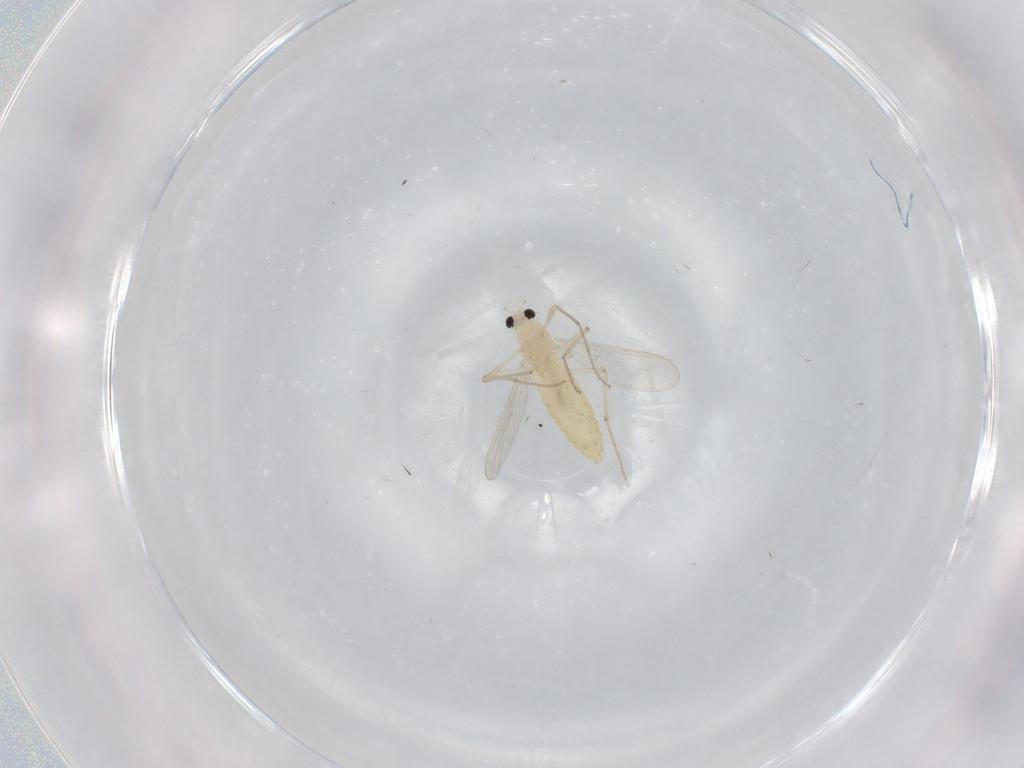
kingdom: Animalia
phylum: Arthropoda
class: Insecta
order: Diptera
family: Chironomidae
